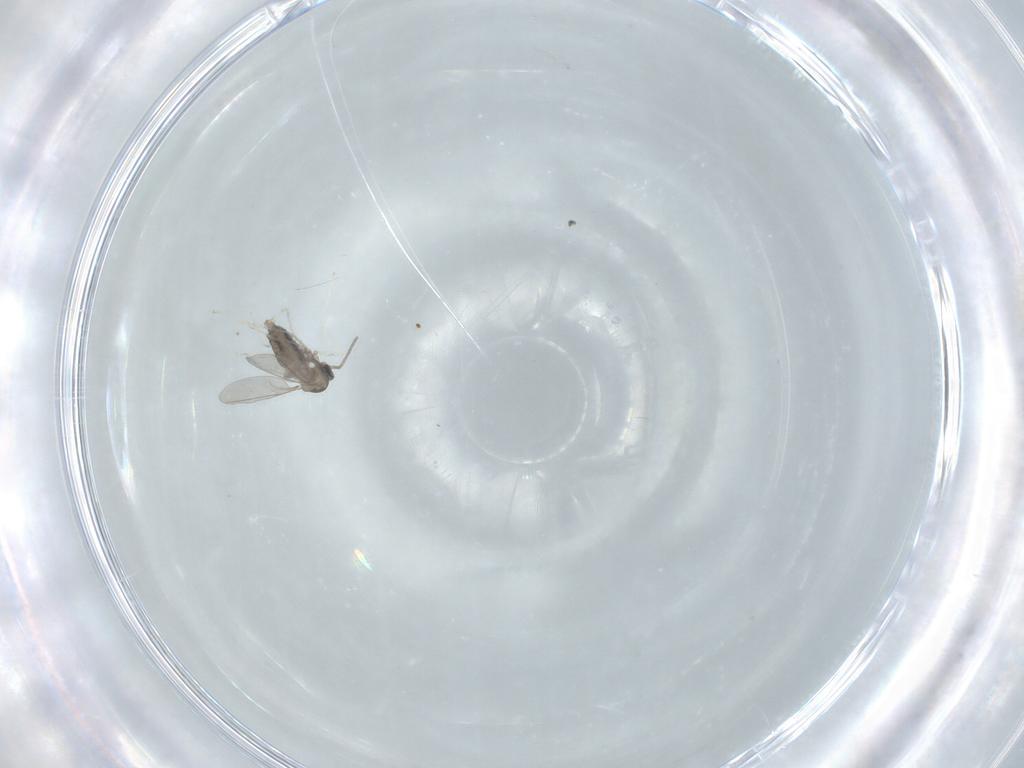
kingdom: Animalia
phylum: Arthropoda
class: Insecta
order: Diptera
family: Cecidomyiidae
